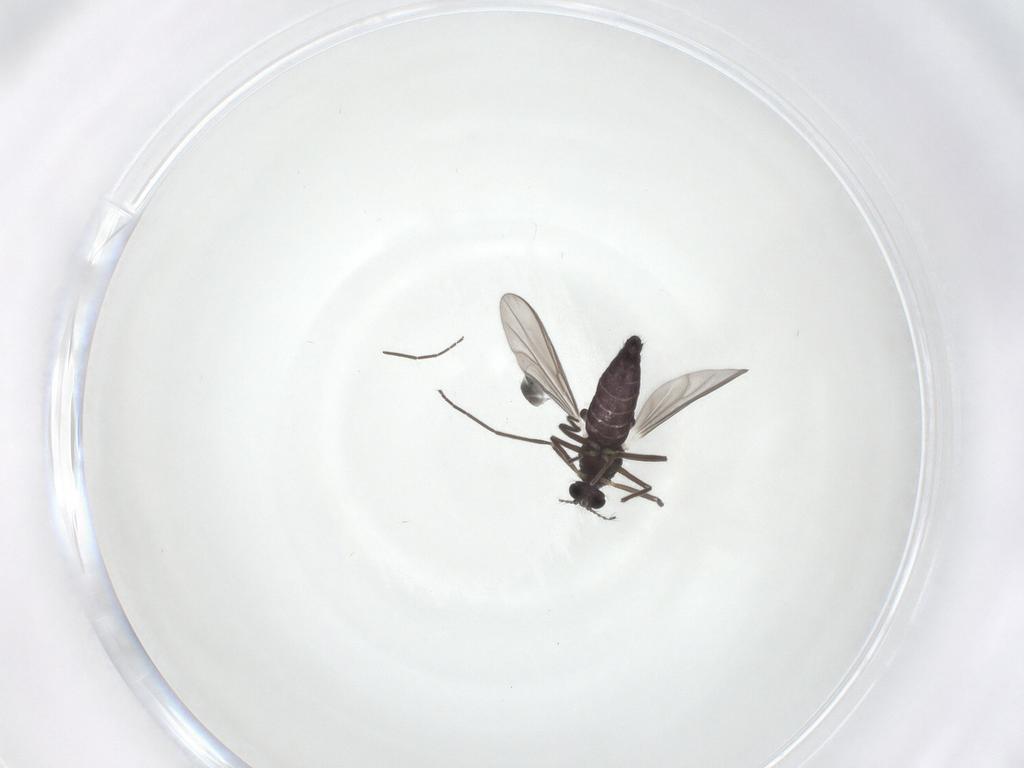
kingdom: Animalia
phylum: Arthropoda
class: Insecta
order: Diptera
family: Chironomidae
